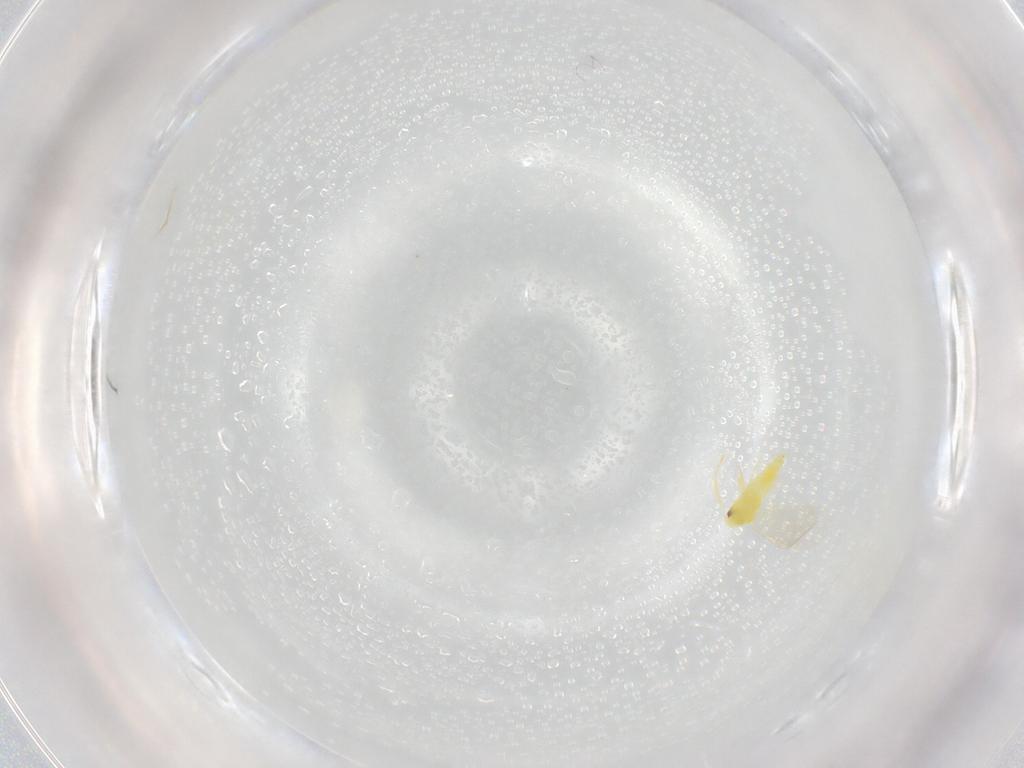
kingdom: Animalia
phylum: Arthropoda
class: Insecta
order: Hemiptera
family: Aleyrodidae
